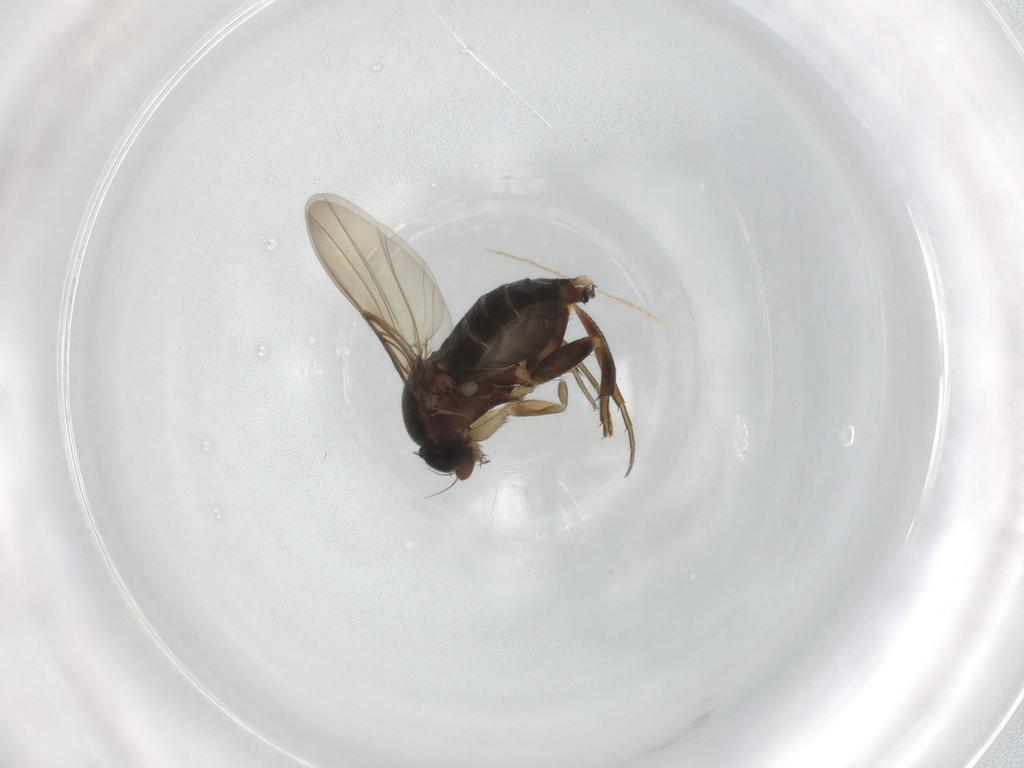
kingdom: Animalia
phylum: Arthropoda
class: Insecta
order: Diptera
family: Phoridae
